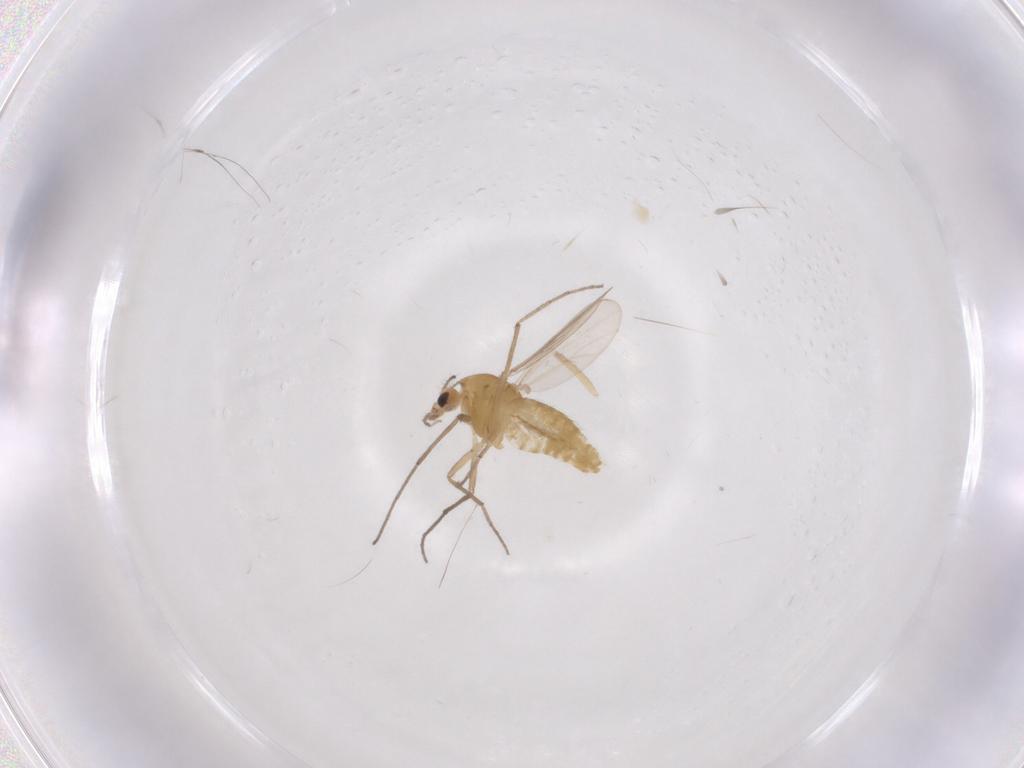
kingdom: Animalia
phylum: Arthropoda
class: Insecta
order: Diptera
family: Chironomidae
